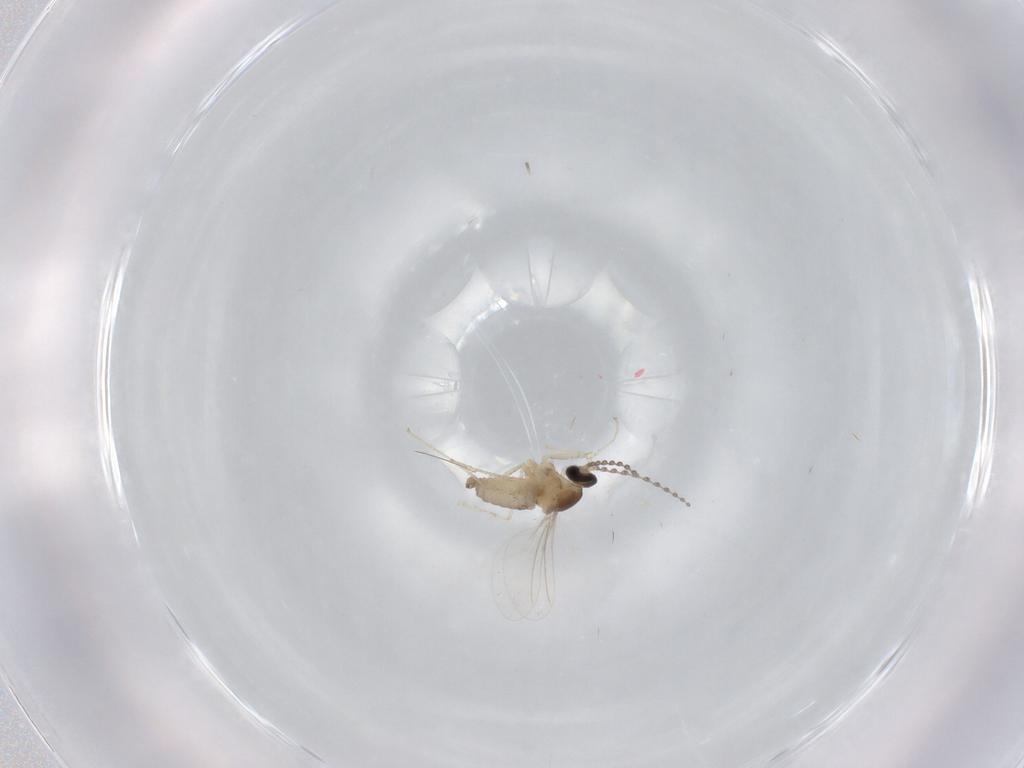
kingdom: Animalia
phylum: Arthropoda
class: Insecta
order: Diptera
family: Cecidomyiidae
